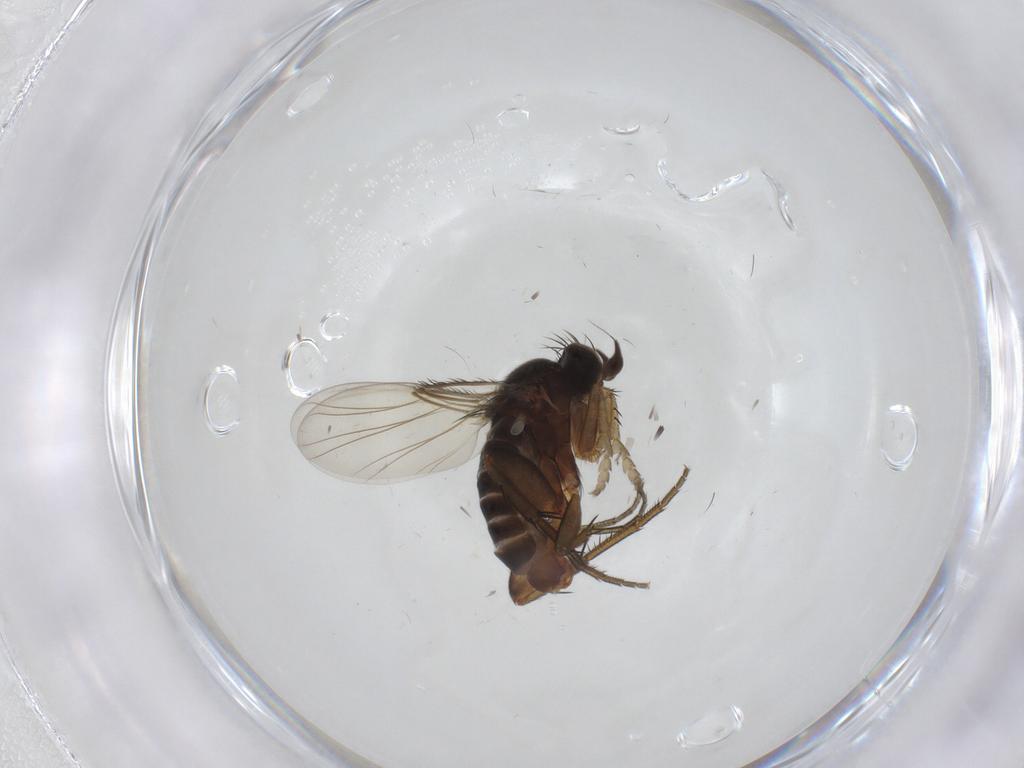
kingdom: Animalia
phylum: Arthropoda
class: Insecta
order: Diptera
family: Phoridae
